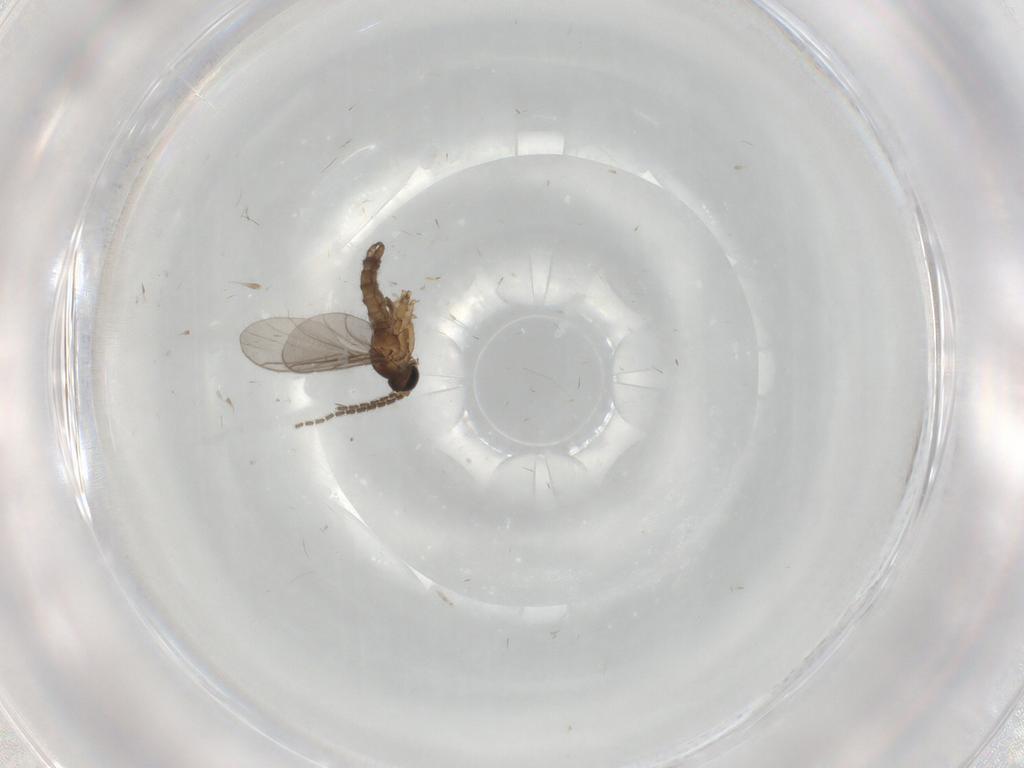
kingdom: Animalia
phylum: Arthropoda
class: Insecta
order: Diptera
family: Sciaridae
